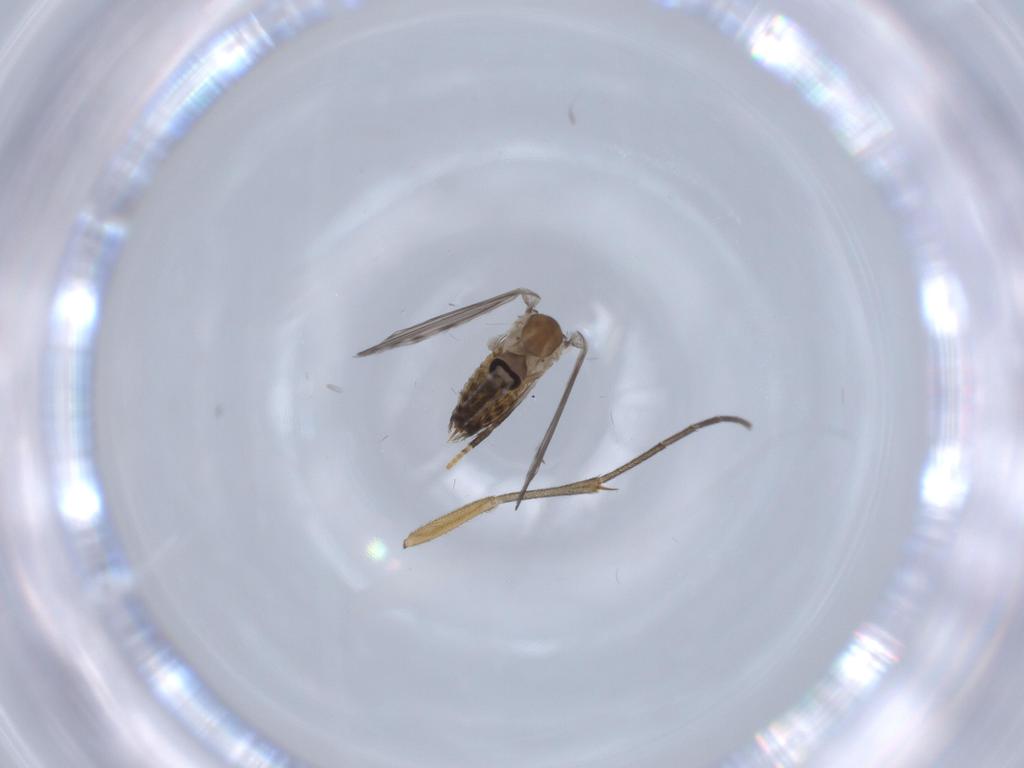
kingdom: Animalia
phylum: Arthropoda
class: Insecta
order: Diptera
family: Psychodidae
